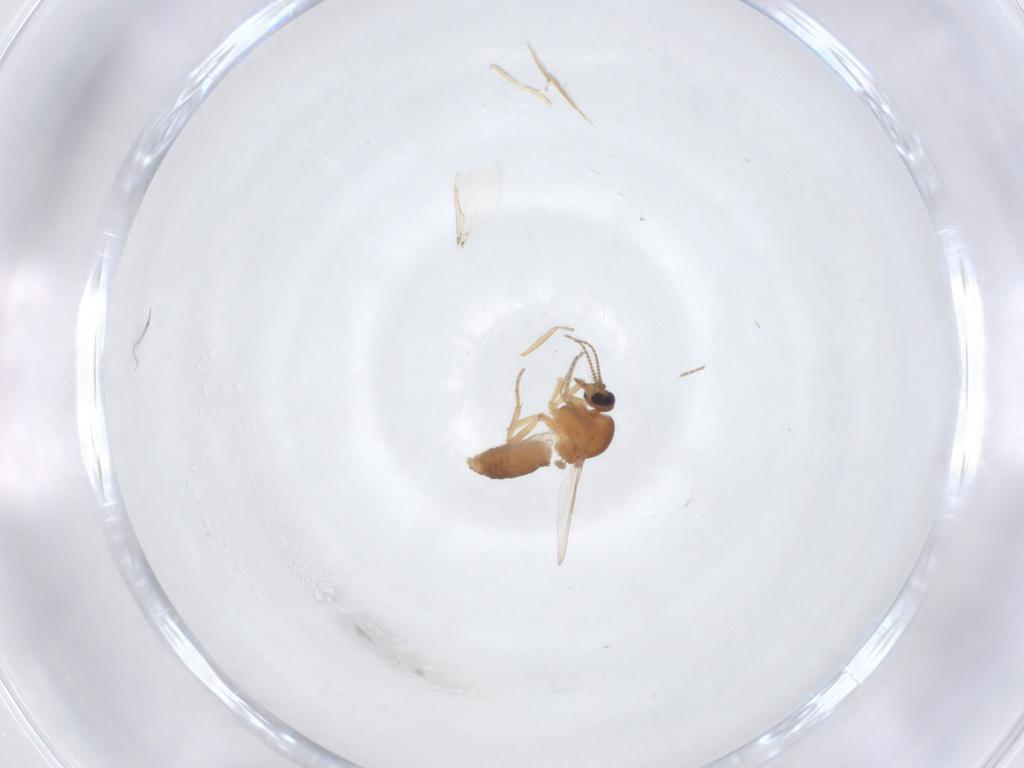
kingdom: Animalia
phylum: Arthropoda
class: Insecta
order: Diptera
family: Ceratopogonidae
